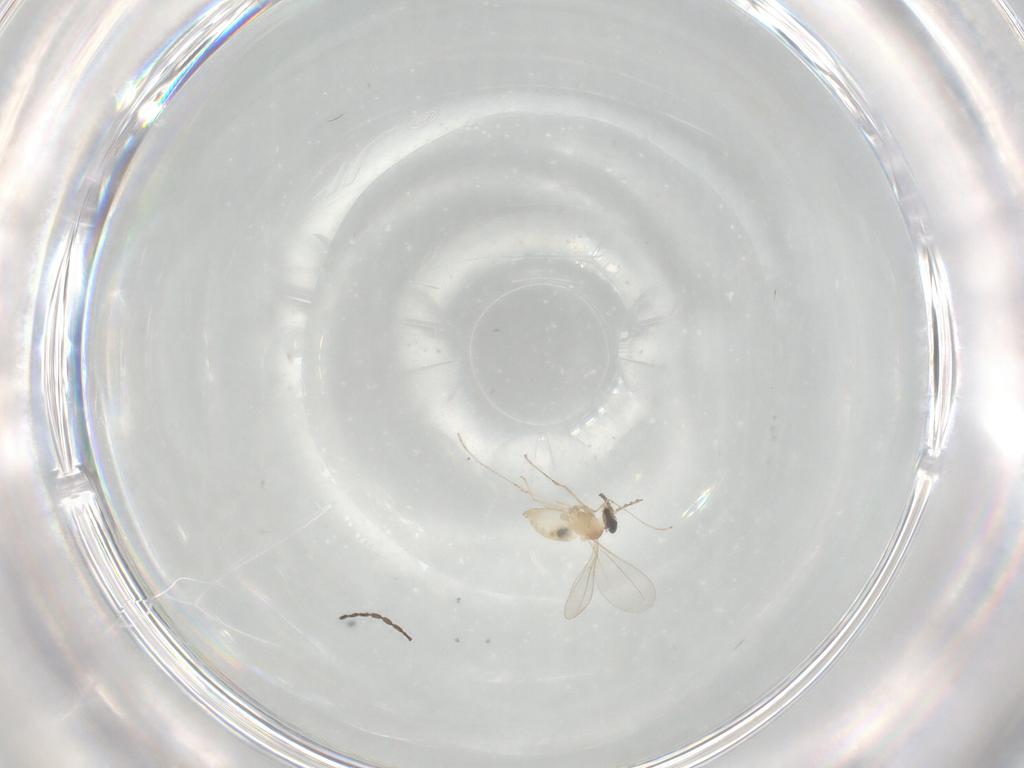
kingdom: Animalia
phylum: Arthropoda
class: Insecta
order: Diptera
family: Cecidomyiidae
